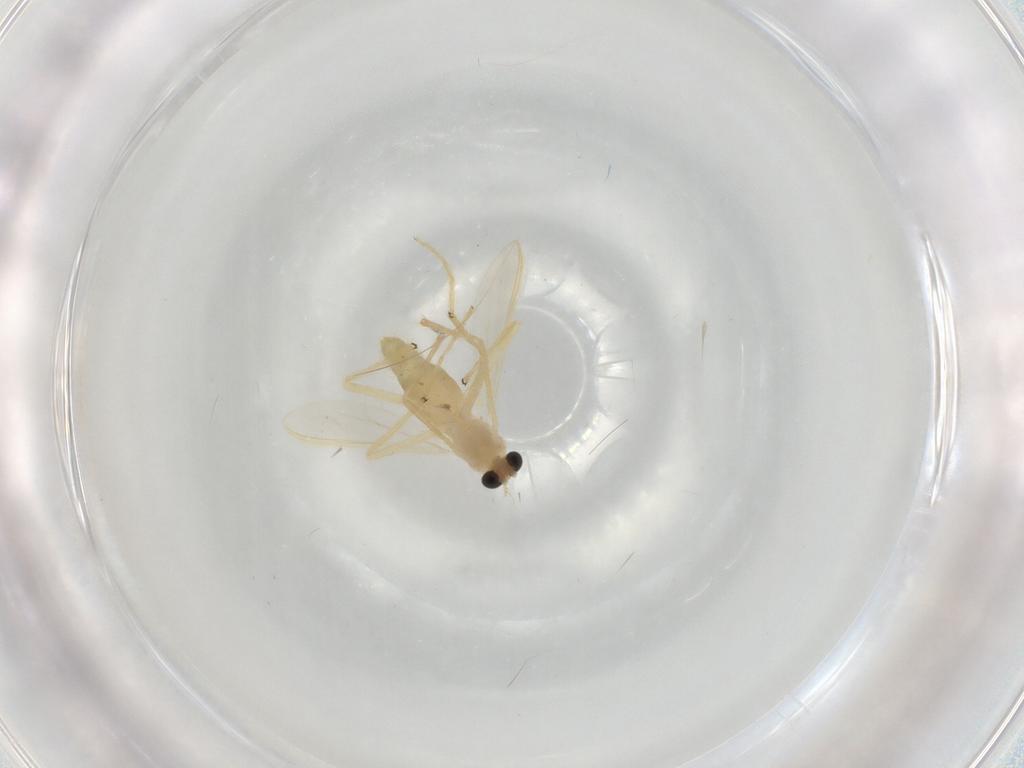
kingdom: Animalia
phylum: Arthropoda
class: Insecta
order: Diptera
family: Chironomidae
